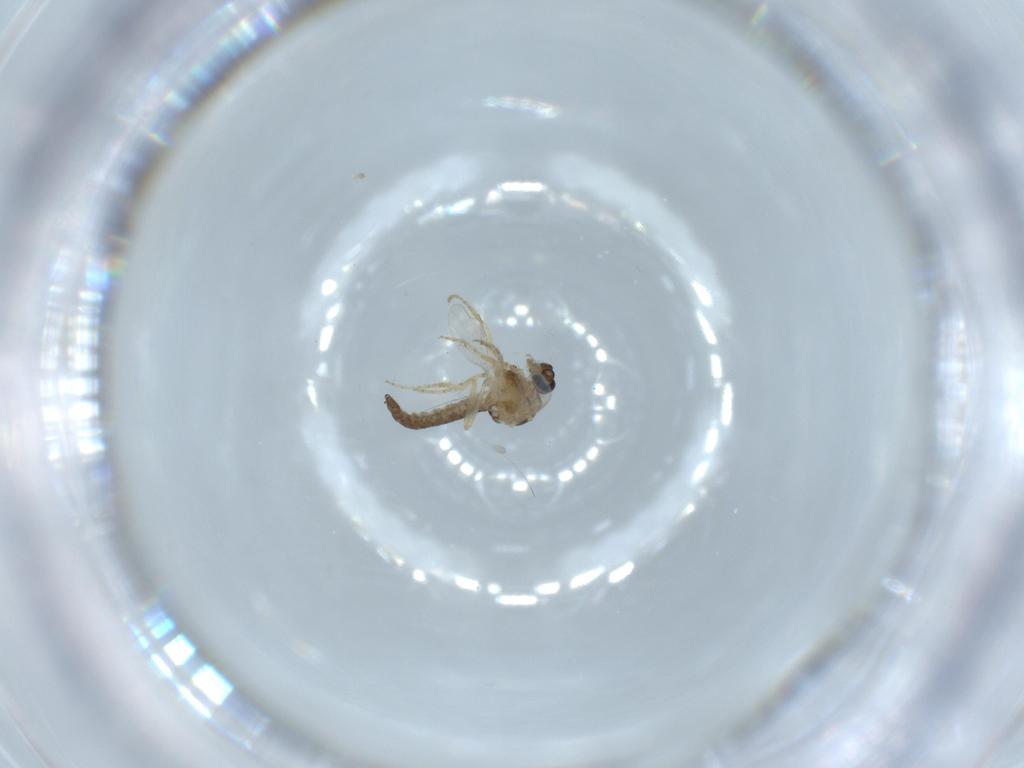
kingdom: Animalia
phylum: Arthropoda
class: Insecta
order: Diptera
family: Ceratopogonidae
